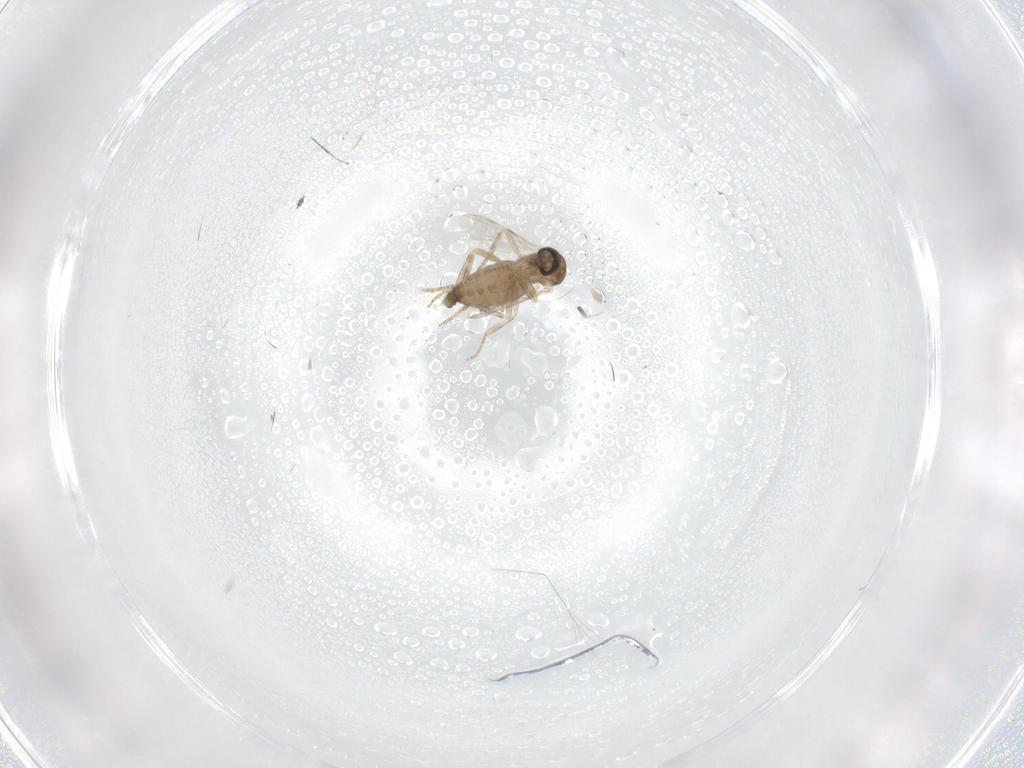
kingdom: Animalia
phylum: Arthropoda
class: Insecta
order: Diptera
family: Ceratopogonidae
